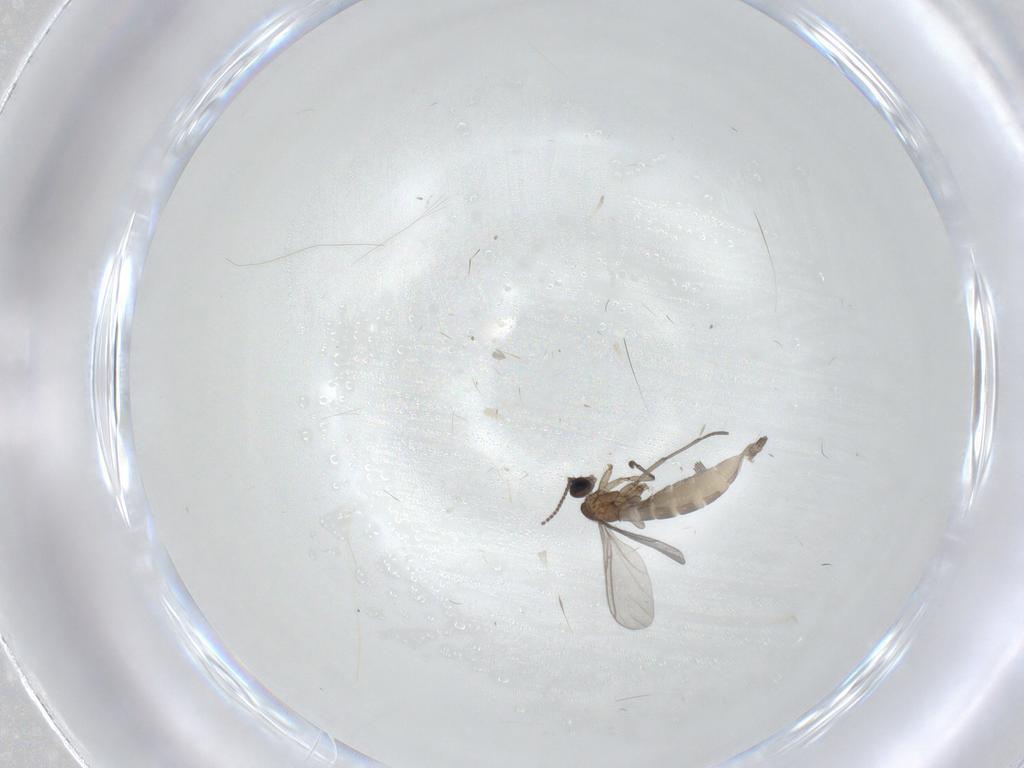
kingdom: Animalia
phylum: Arthropoda
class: Insecta
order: Diptera
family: Sciaridae
